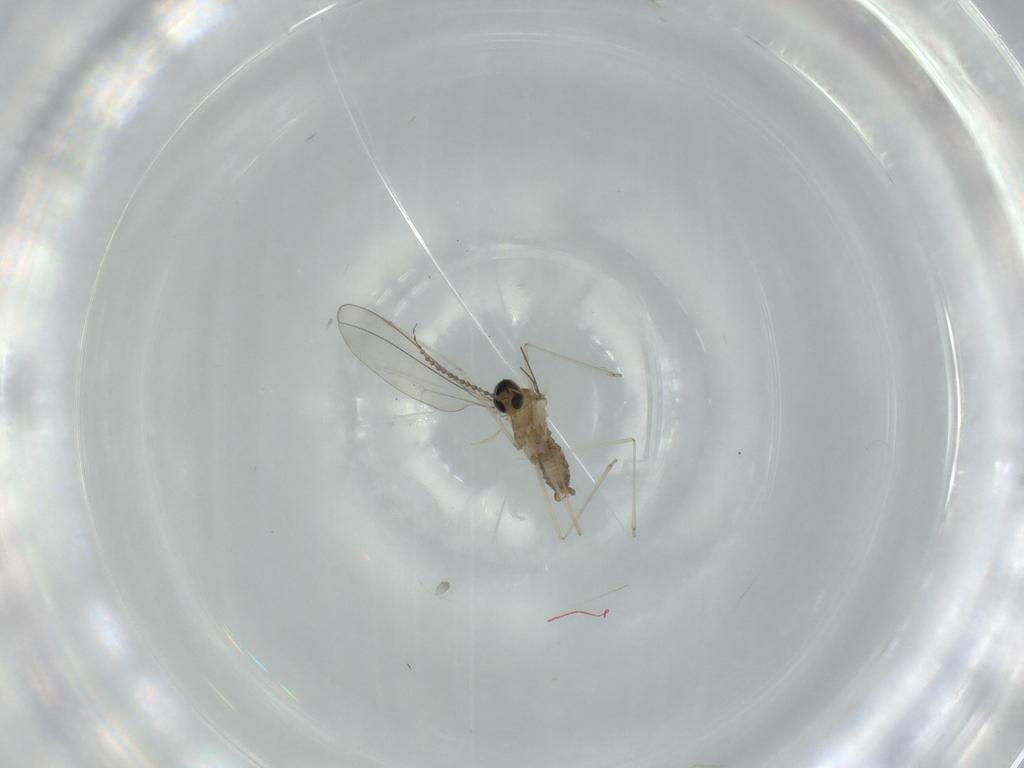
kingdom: Animalia
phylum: Arthropoda
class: Insecta
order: Diptera
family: Cecidomyiidae
